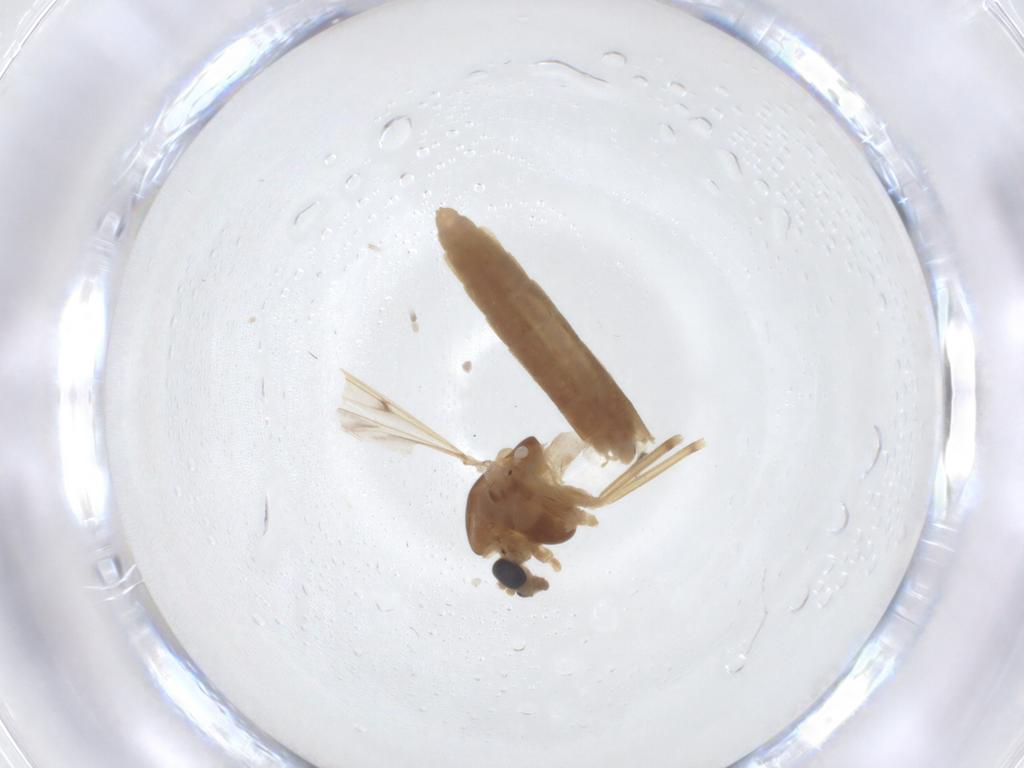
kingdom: Animalia
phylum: Arthropoda
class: Insecta
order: Diptera
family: Chironomidae
